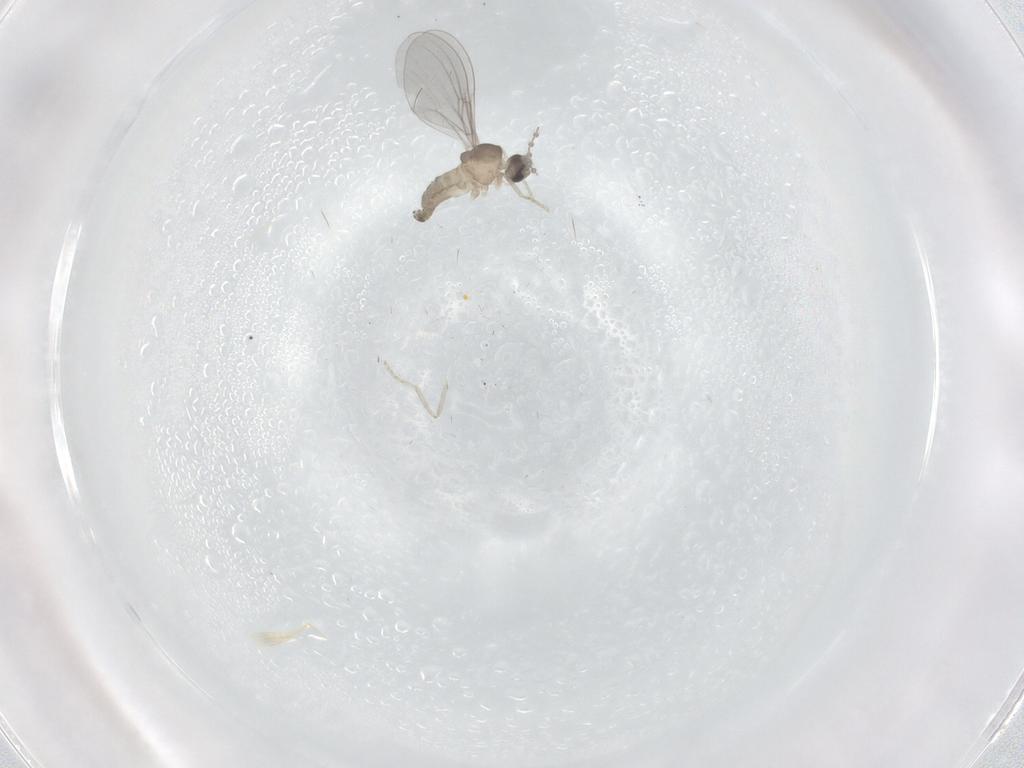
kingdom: Animalia
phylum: Arthropoda
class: Insecta
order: Diptera
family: Cecidomyiidae
